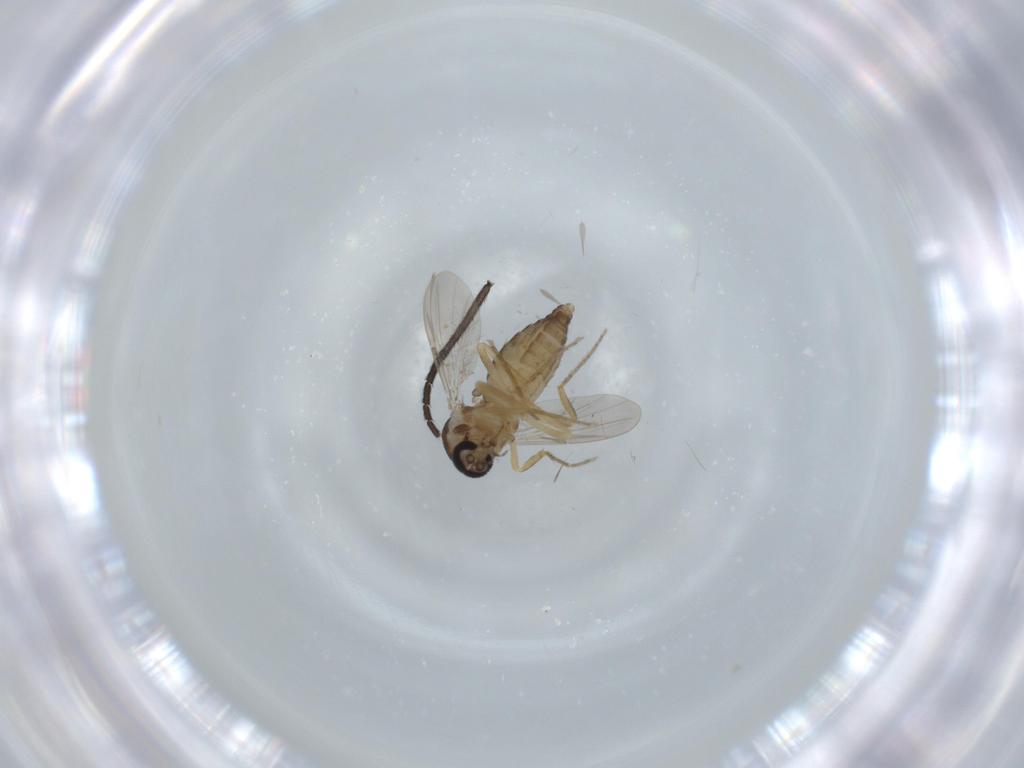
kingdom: Animalia
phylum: Arthropoda
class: Insecta
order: Diptera
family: Ceratopogonidae
